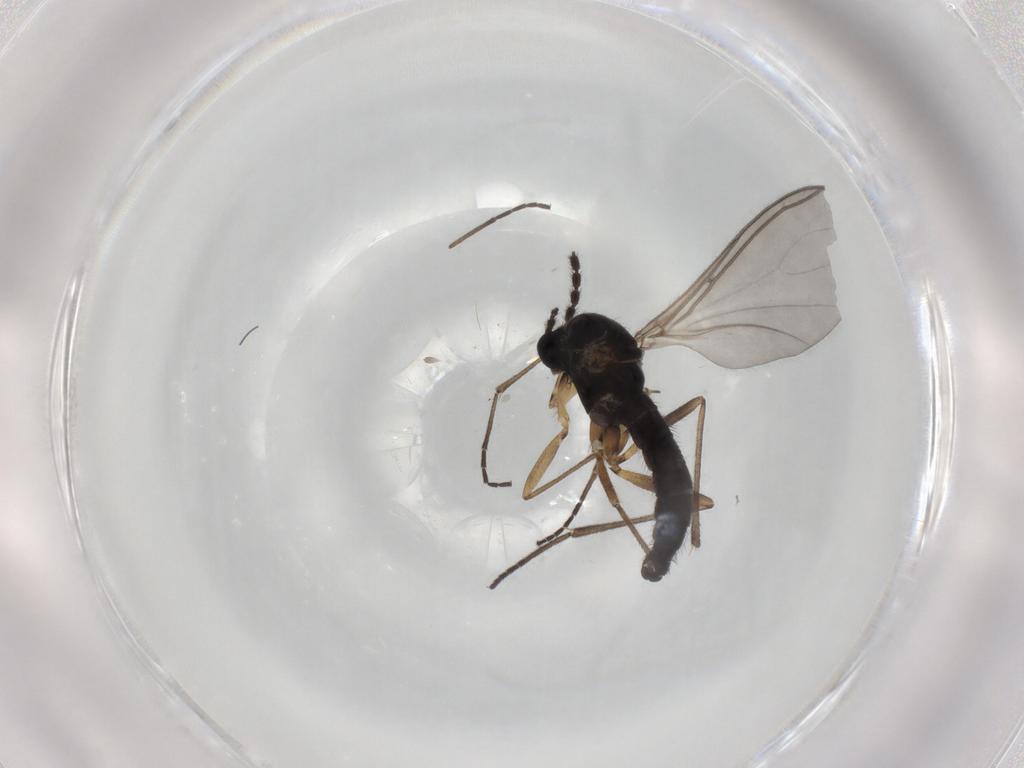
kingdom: Animalia
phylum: Arthropoda
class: Insecta
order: Diptera
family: Sciaridae
